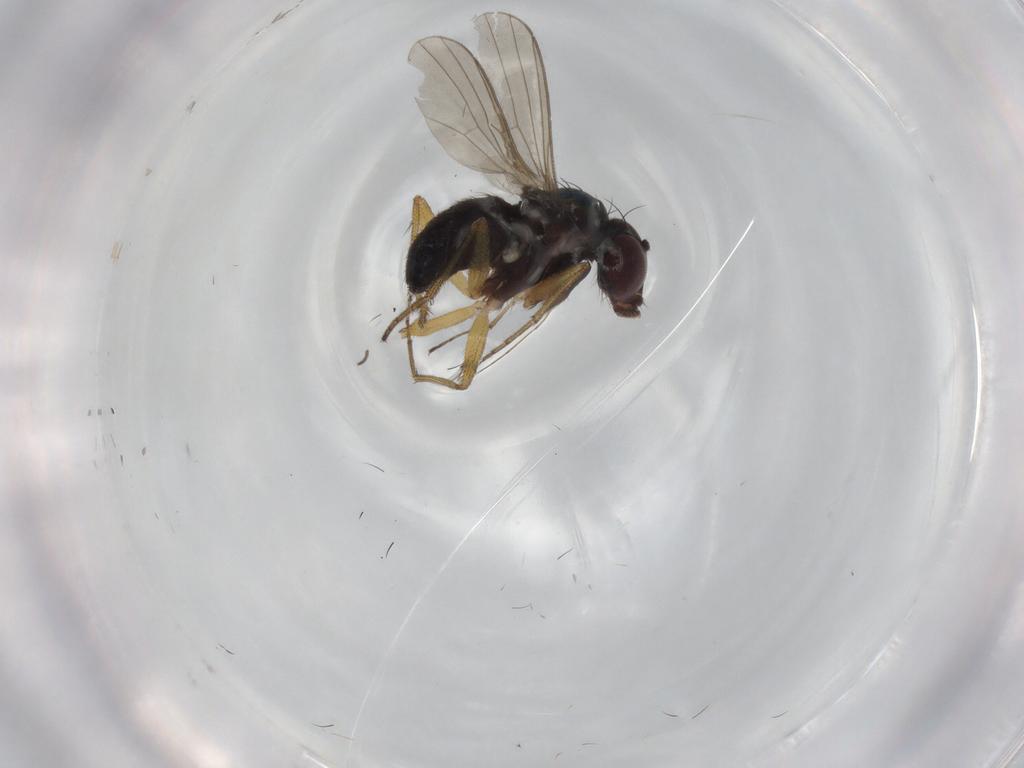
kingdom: Animalia
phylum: Arthropoda
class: Insecta
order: Diptera
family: Dolichopodidae
